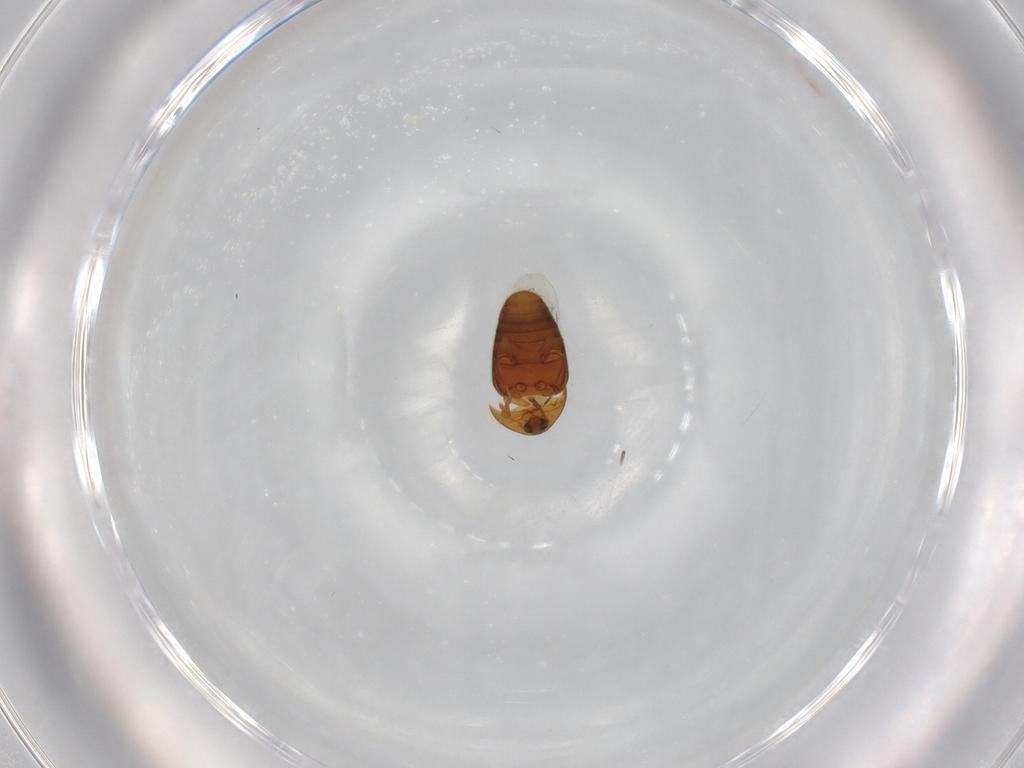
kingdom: Animalia
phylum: Arthropoda
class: Insecta
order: Coleoptera
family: Corylophidae
